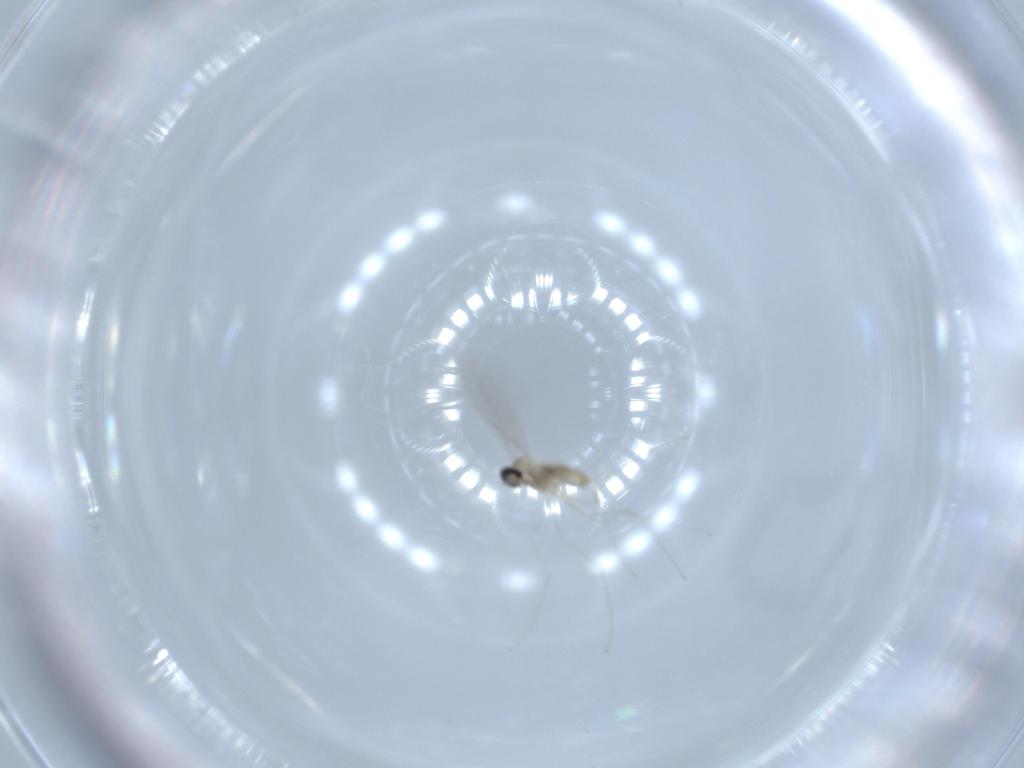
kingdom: Animalia
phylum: Arthropoda
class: Insecta
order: Diptera
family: Cecidomyiidae
